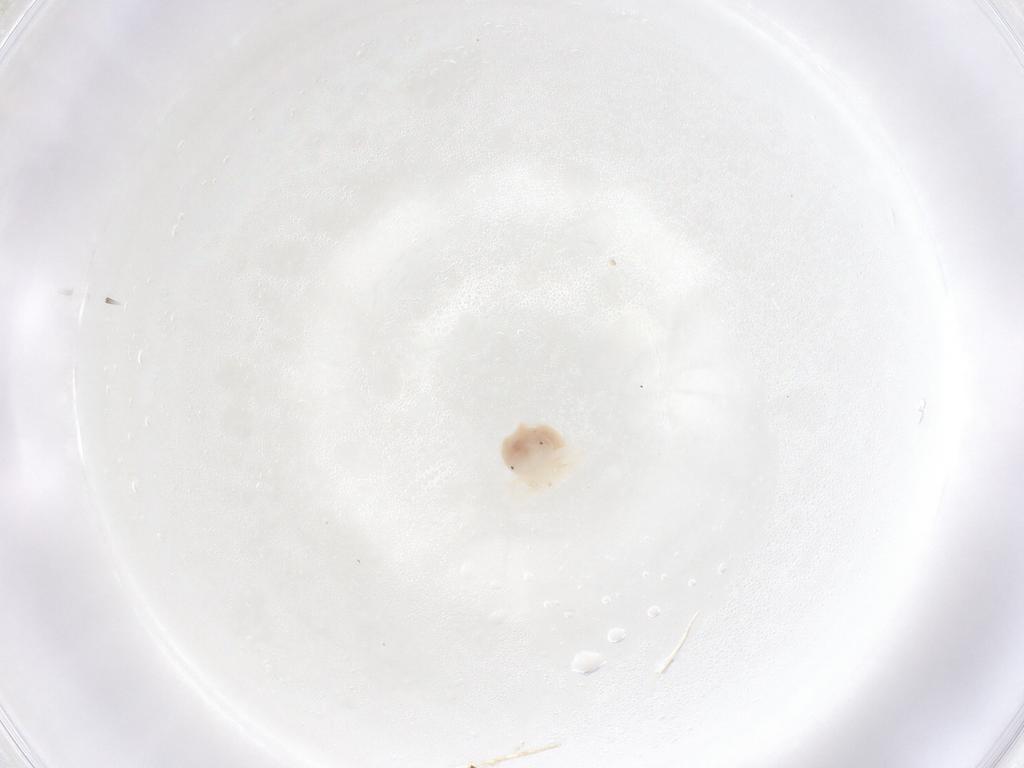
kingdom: Animalia
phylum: Arthropoda
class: Arachnida
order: Trombidiformes
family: Anystidae
